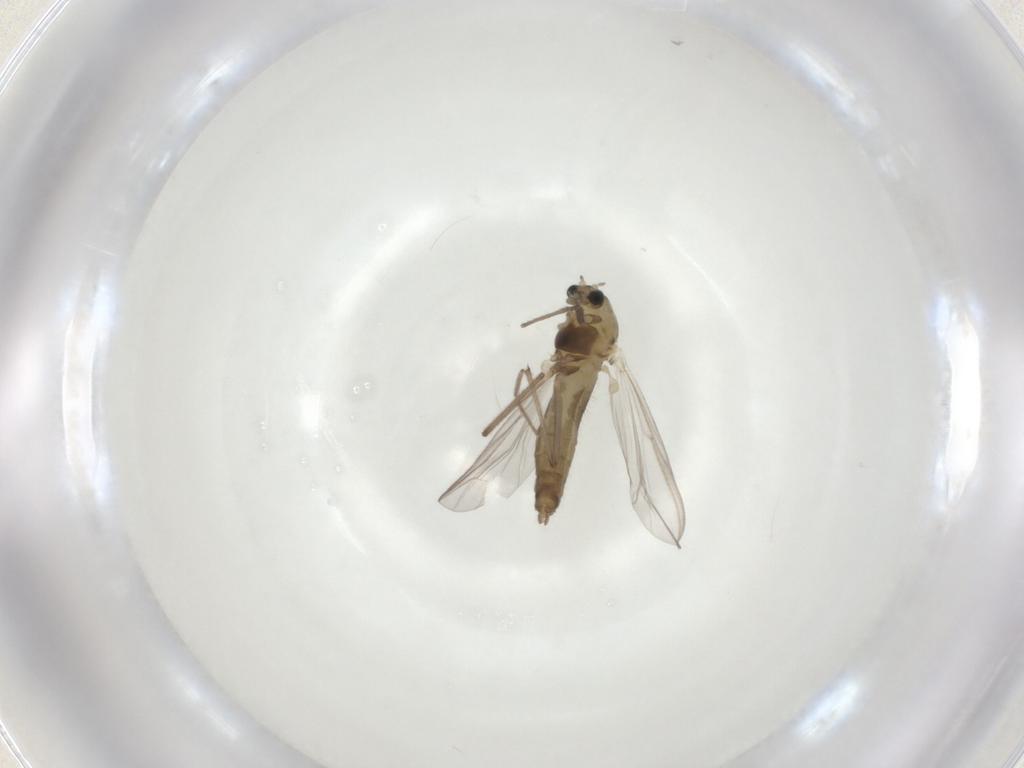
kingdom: Animalia
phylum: Arthropoda
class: Insecta
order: Diptera
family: Chironomidae
